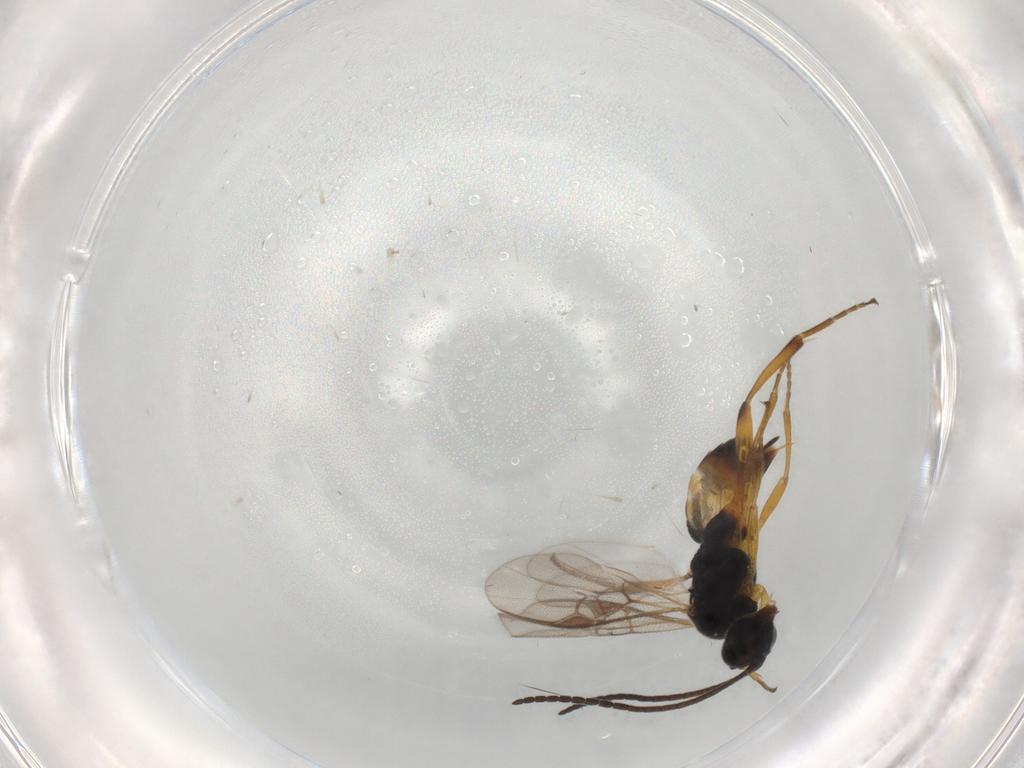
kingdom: Animalia
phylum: Arthropoda
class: Insecta
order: Hymenoptera
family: Braconidae
